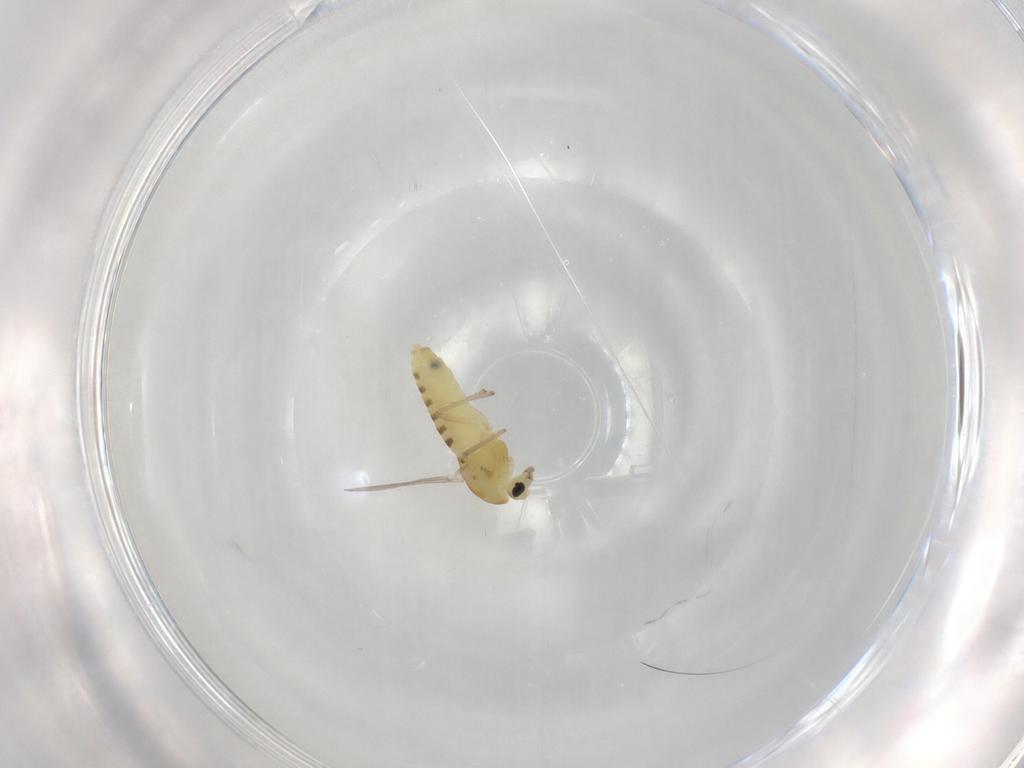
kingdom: Animalia
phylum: Arthropoda
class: Insecta
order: Diptera
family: Chironomidae
